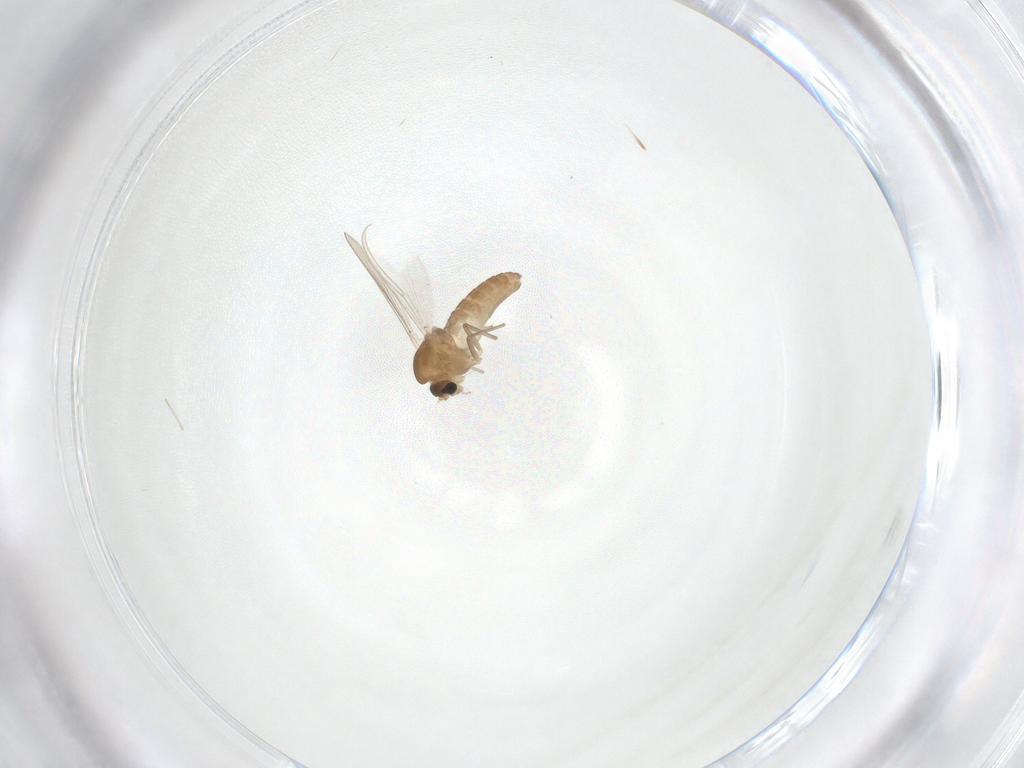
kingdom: Animalia
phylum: Arthropoda
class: Insecta
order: Diptera
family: Chironomidae
